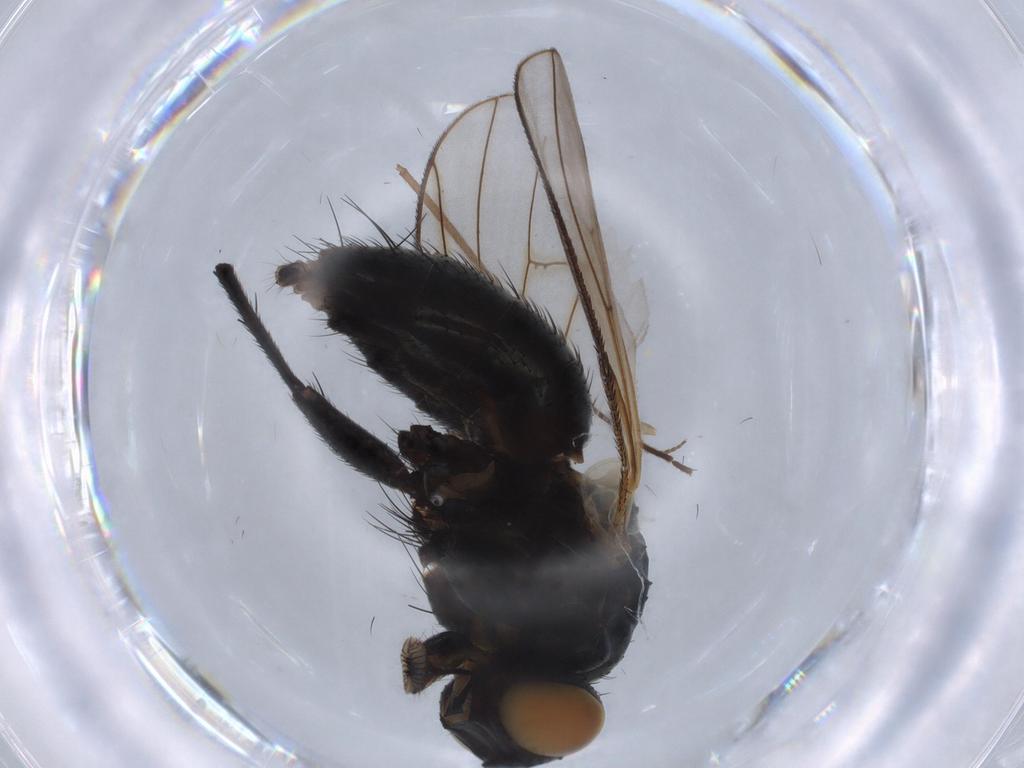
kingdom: Animalia
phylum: Arthropoda
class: Insecta
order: Diptera
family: Muscidae
